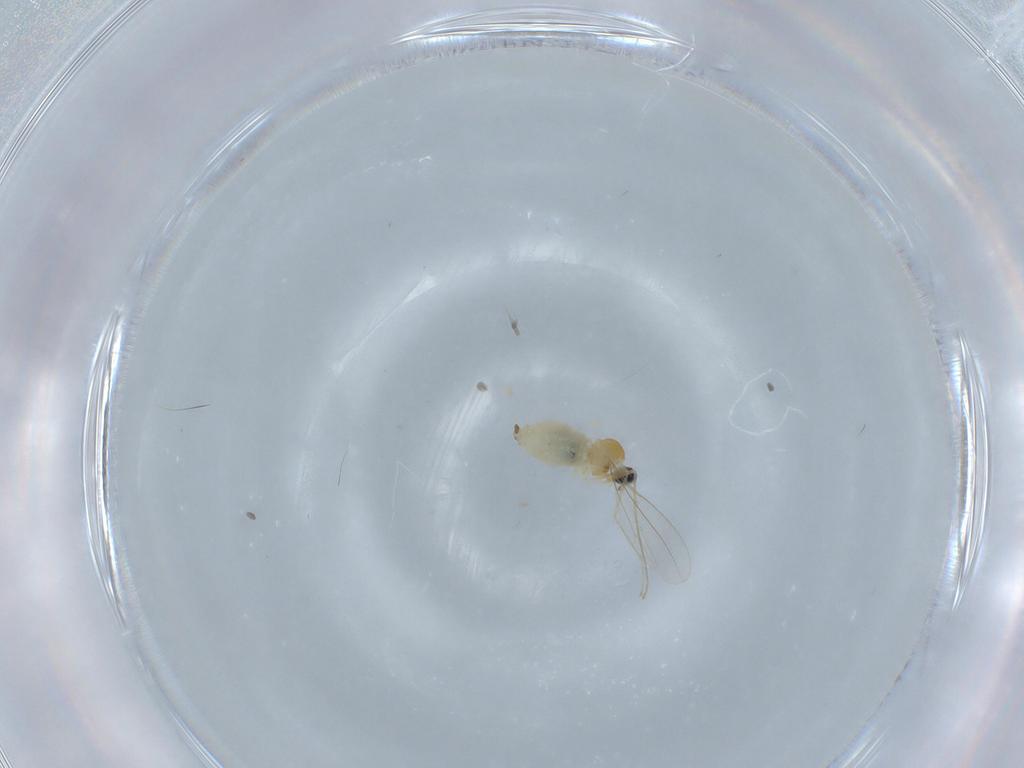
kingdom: Animalia
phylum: Arthropoda
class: Insecta
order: Diptera
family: Cecidomyiidae
